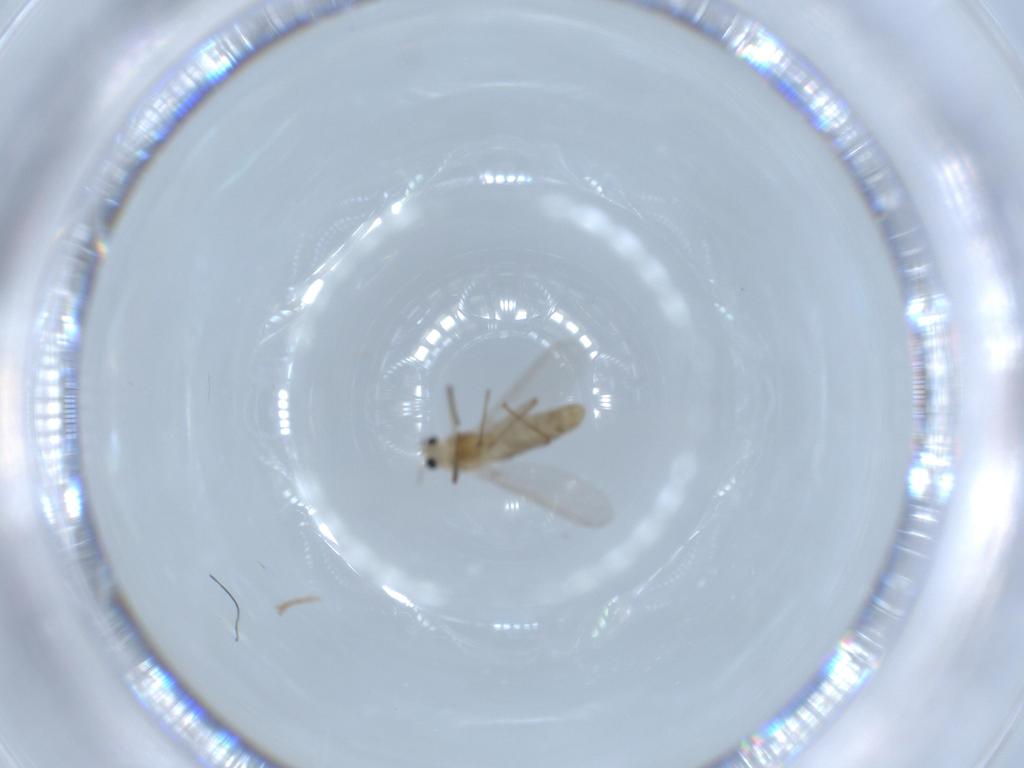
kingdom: Animalia
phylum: Arthropoda
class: Insecta
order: Diptera
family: Chironomidae
